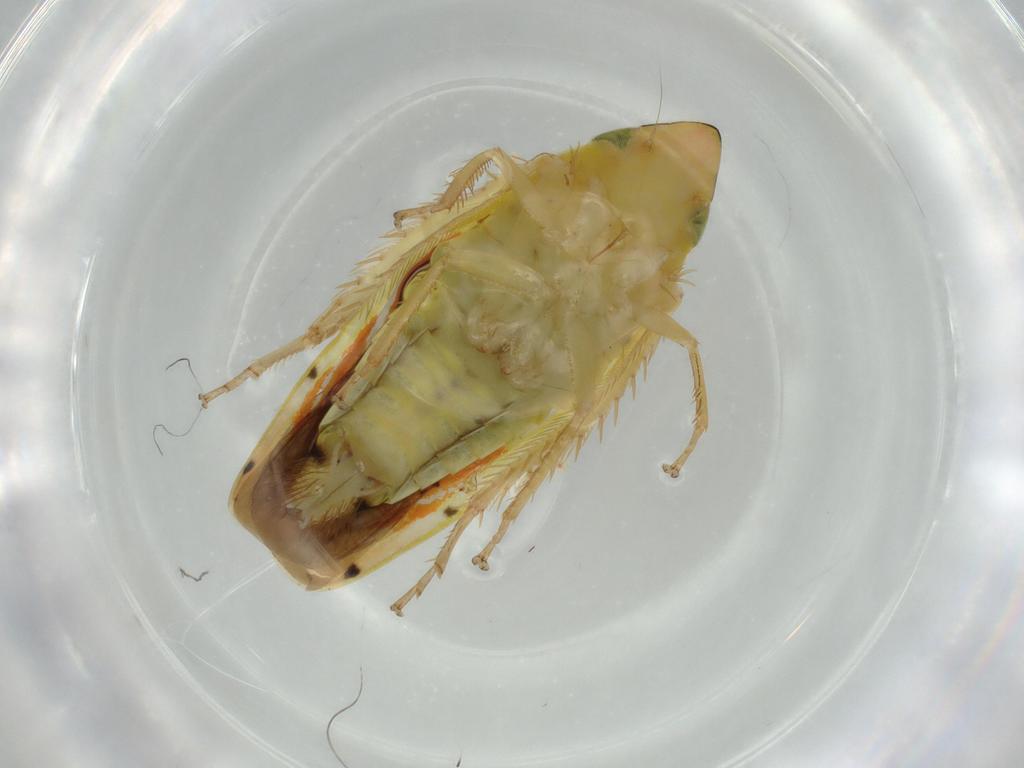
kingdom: Animalia
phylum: Arthropoda
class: Insecta
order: Hemiptera
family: Cicadellidae
